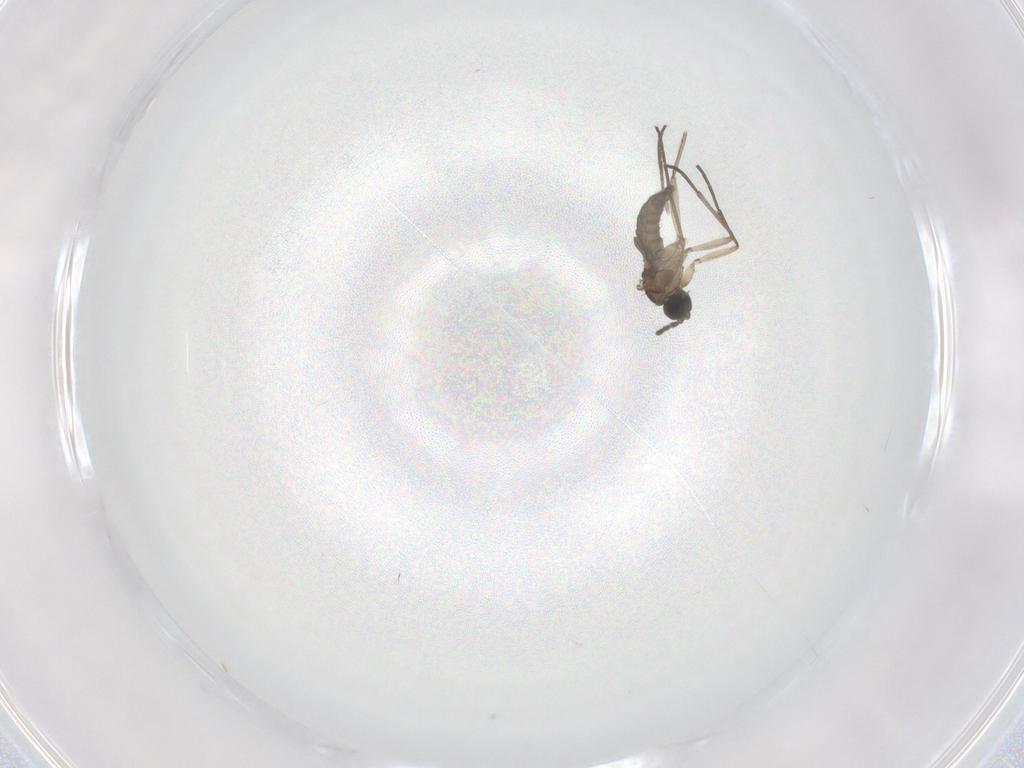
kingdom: Animalia
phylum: Arthropoda
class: Insecta
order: Diptera
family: Sciaridae
